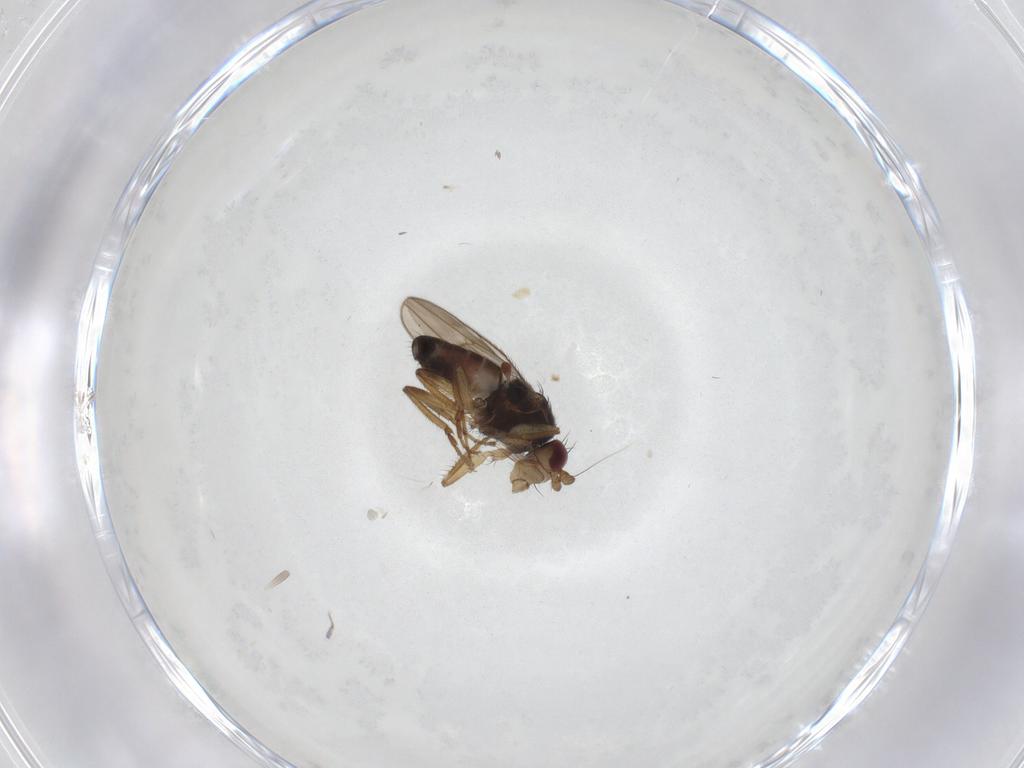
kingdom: Animalia
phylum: Arthropoda
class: Insecta
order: Diptera
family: Sphaeroceridae
